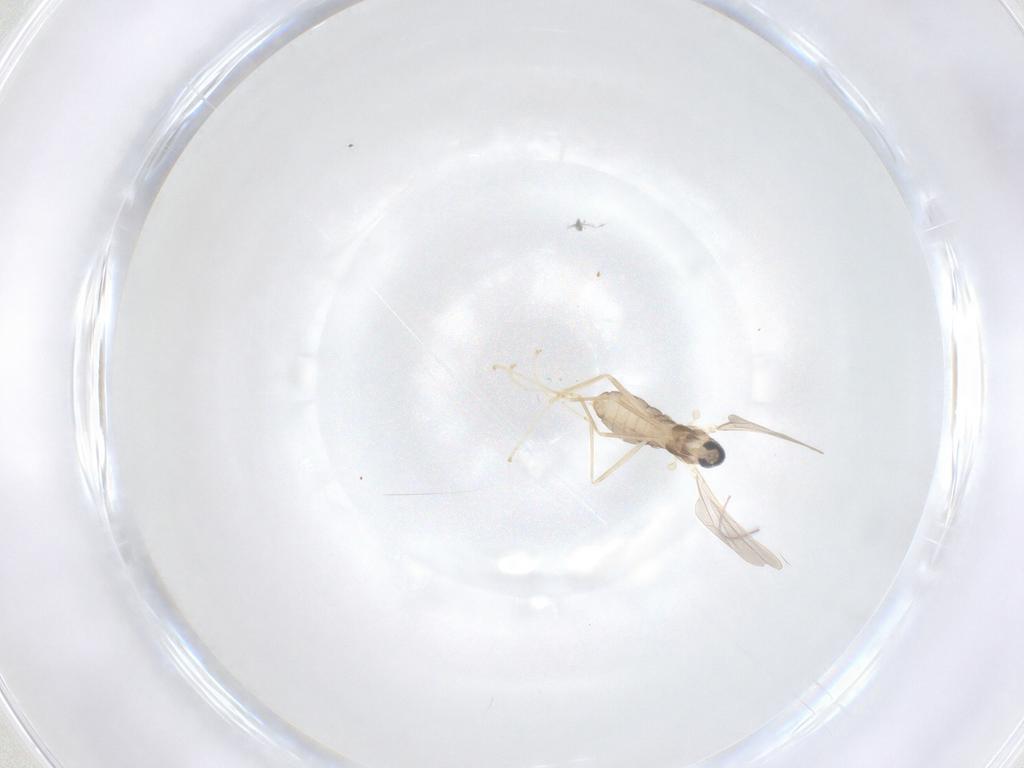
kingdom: Animalia
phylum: Arthropoda
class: Insecta
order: Diptera
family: Cecidomyiidae
